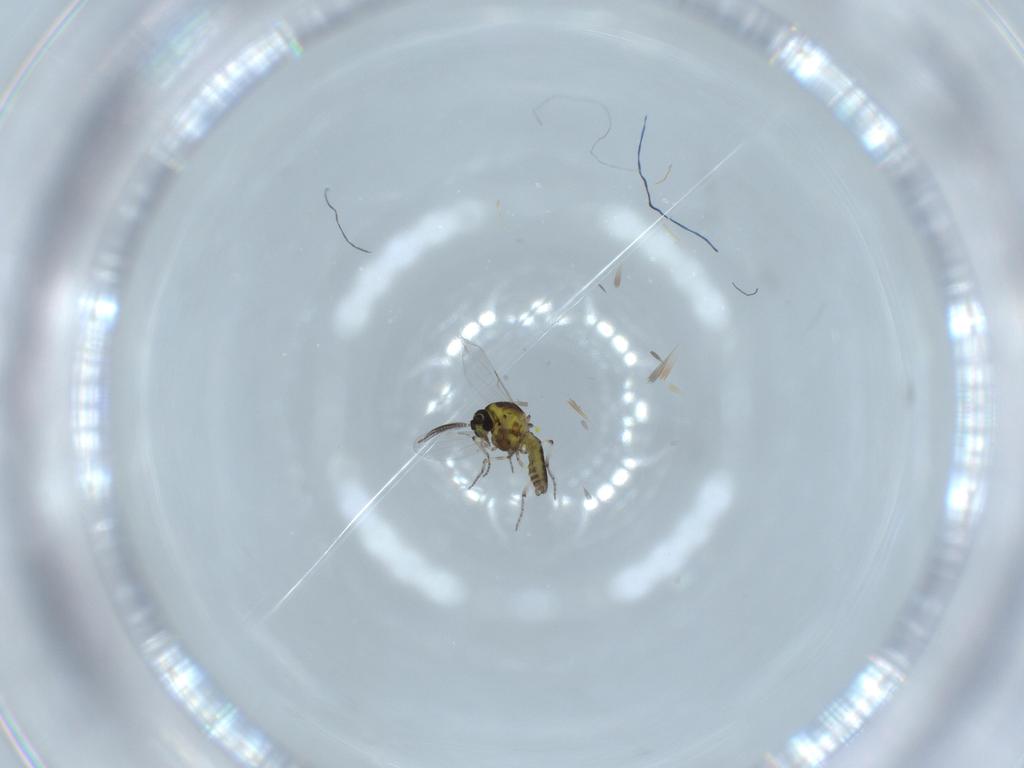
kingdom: Animalia
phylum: Arthropoda
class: Insecta
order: Diptera
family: Ceratopogonidae
